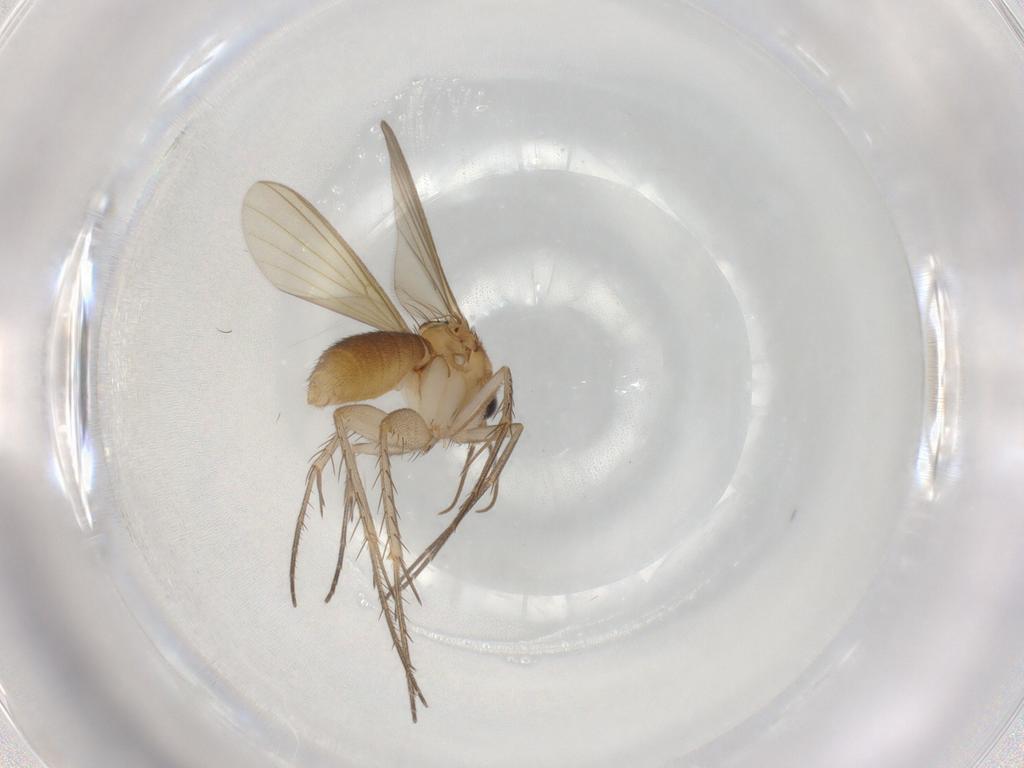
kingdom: Animalia
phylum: Arthropoda
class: Insecta
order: Diptera
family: Mycetophilidae
